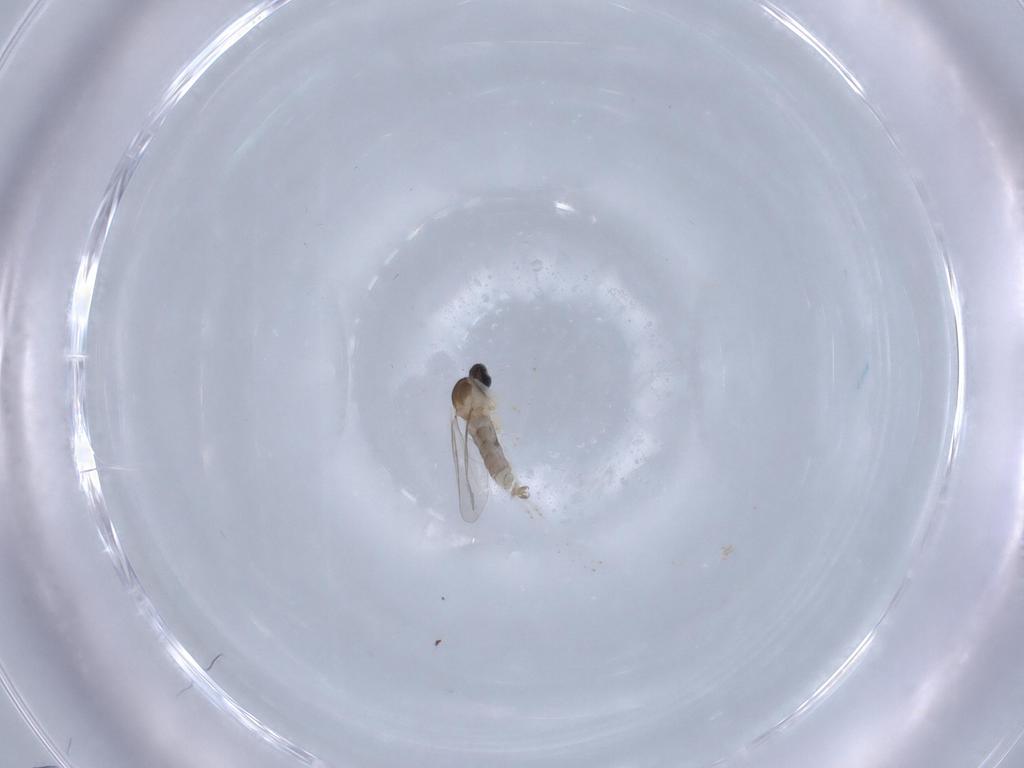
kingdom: Animalia
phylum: Arthropoda
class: Insecta
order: Diptera
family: Cecidomyiidae
